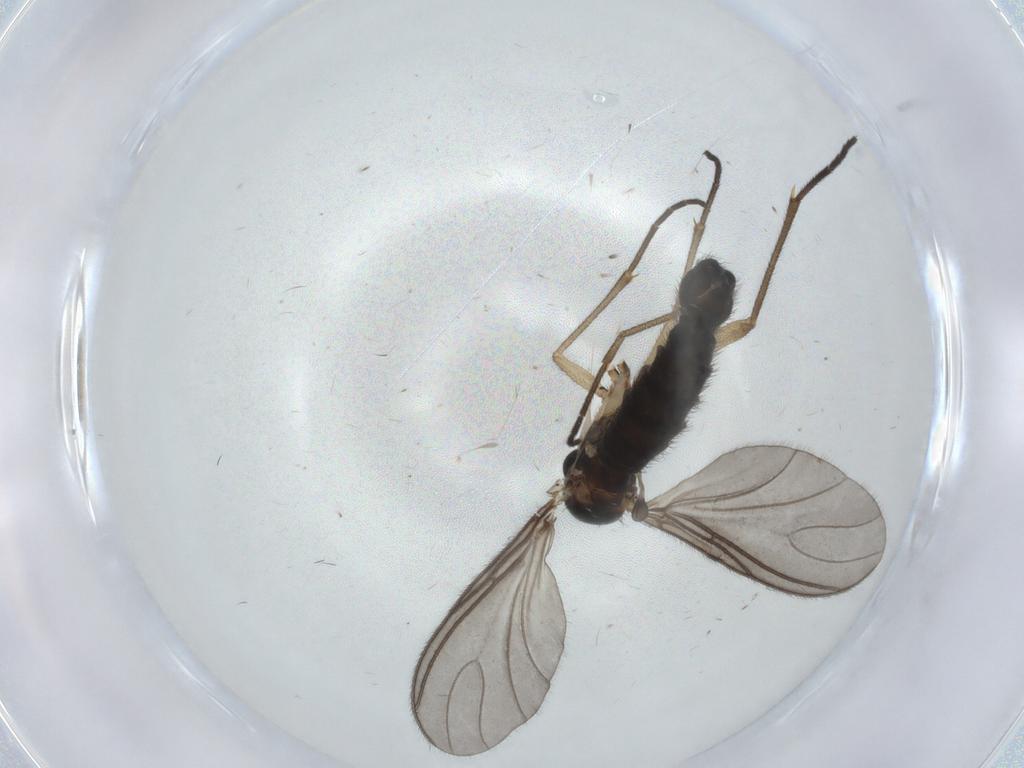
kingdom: Animalia
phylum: Arthropoda
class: Insecta
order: Diptera
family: Sciaridae
